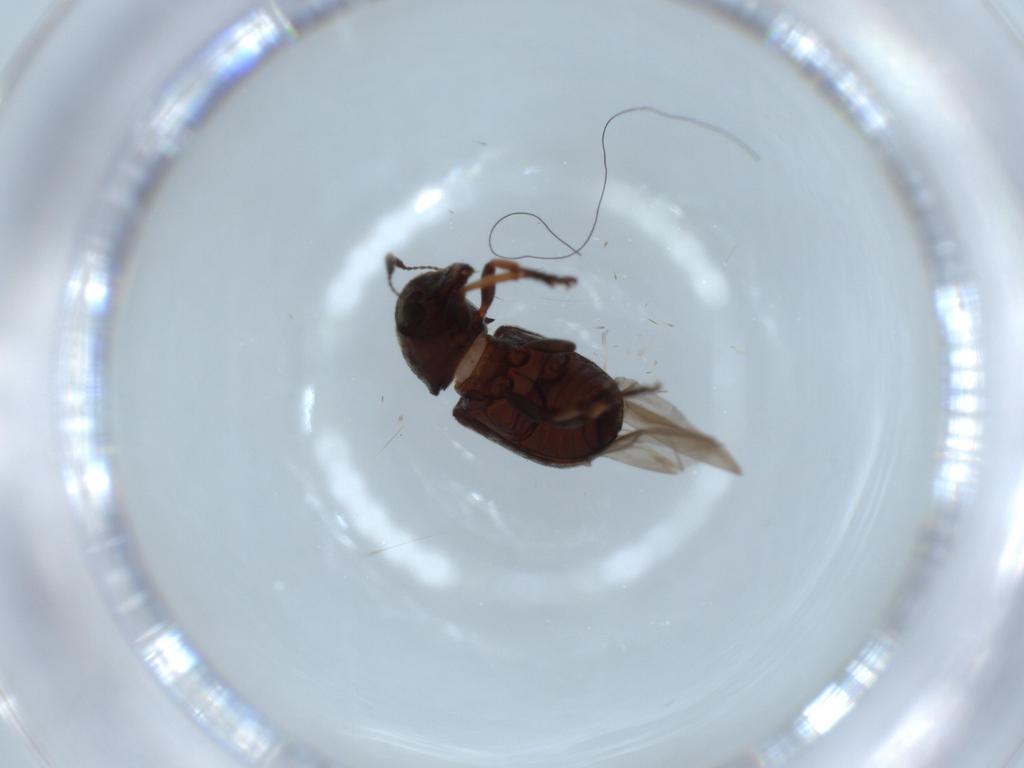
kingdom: Animalia
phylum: Arthropoda
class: Insecta
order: Coleoptera
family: Anthribidae
